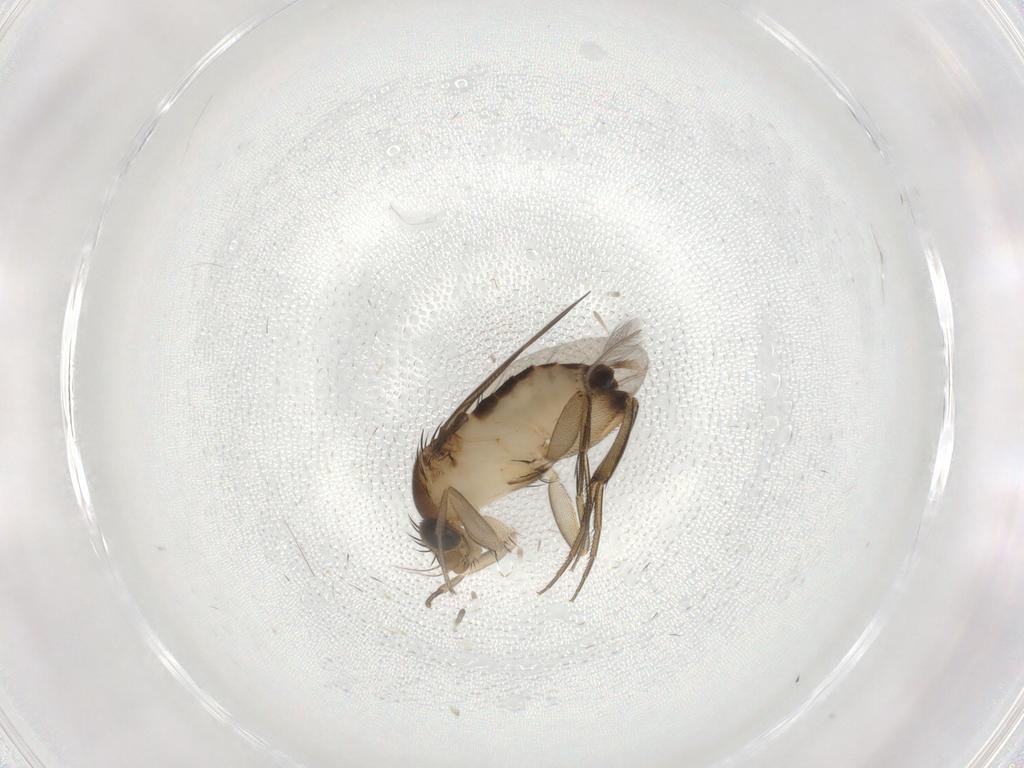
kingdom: Animalia
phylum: Arthropoda
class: Insecta
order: Diptera
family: Phoridae
